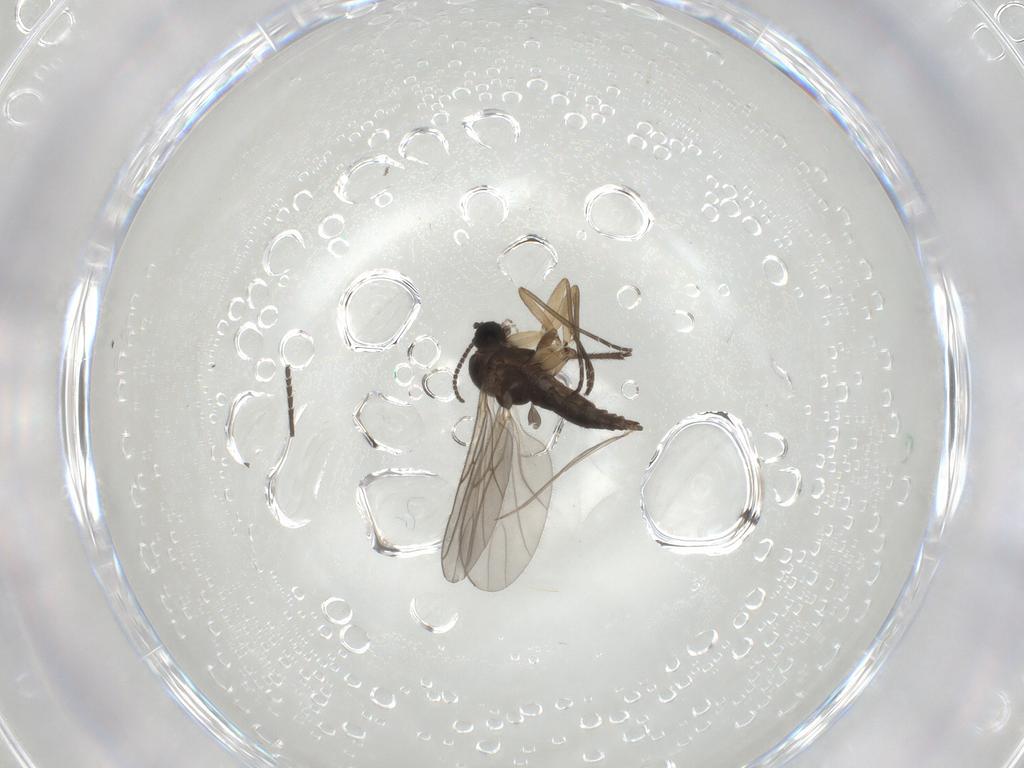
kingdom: Animalia
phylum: Arthropoda
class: Insecta
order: Diptera
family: Sciaridae
